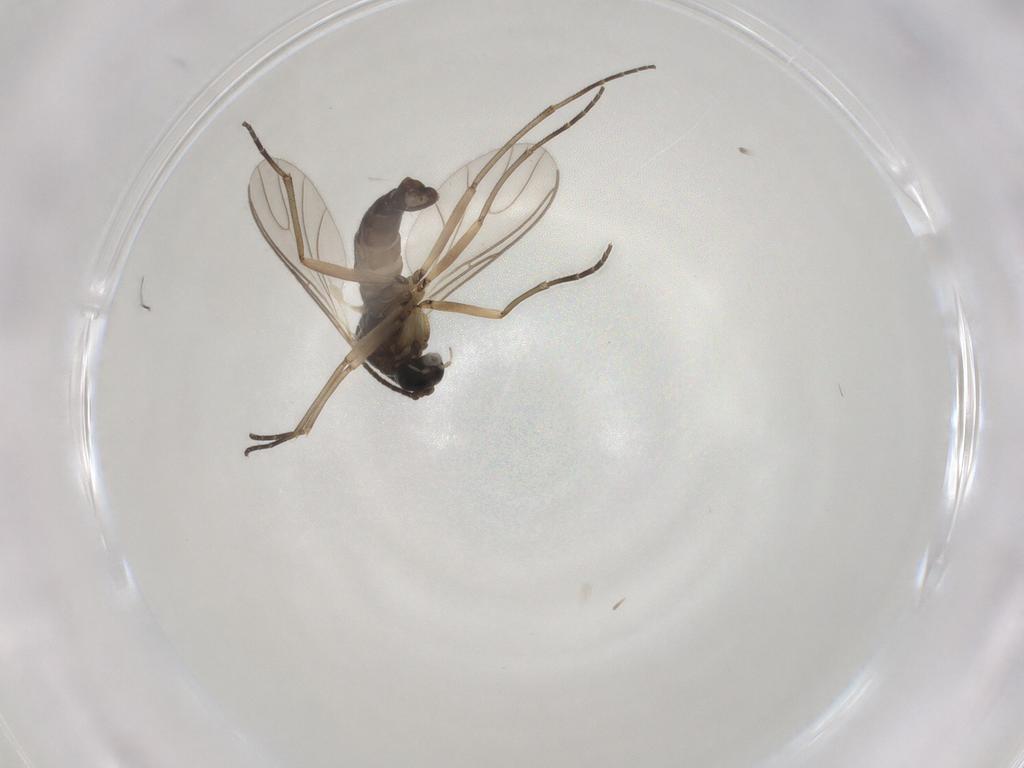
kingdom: Animalia
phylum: Arthropoda
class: Insecta
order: Diptera
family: Sciaridae
